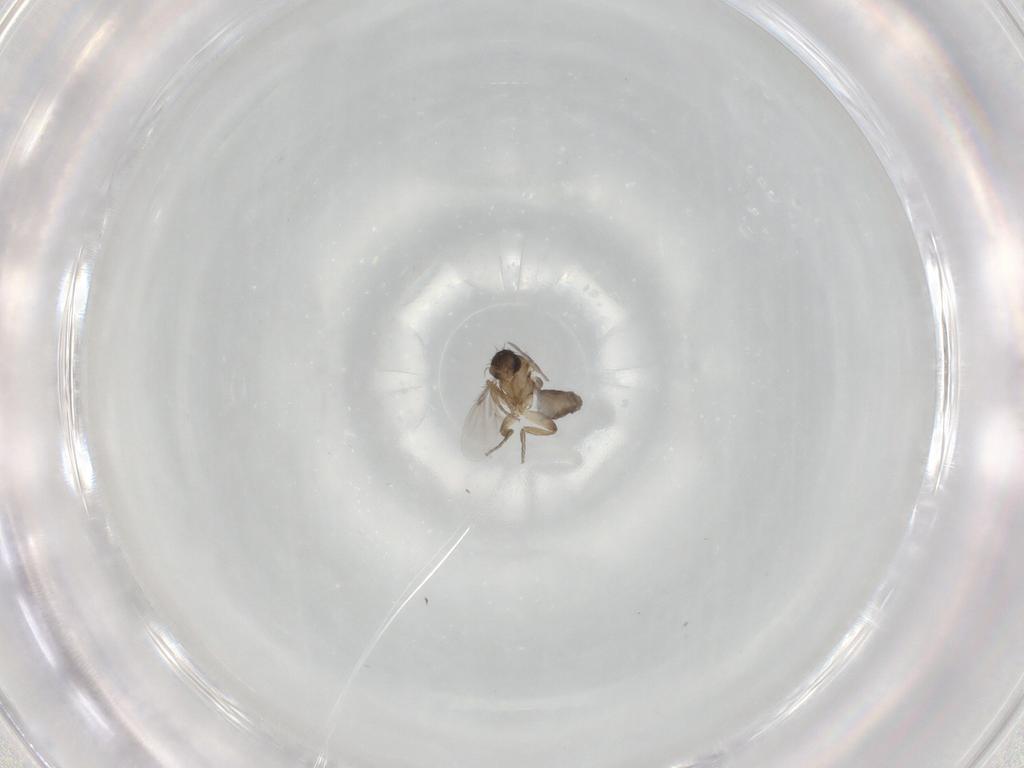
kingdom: Animalia
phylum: Arthropoda
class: Insecta
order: Diptera
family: Phoridae
